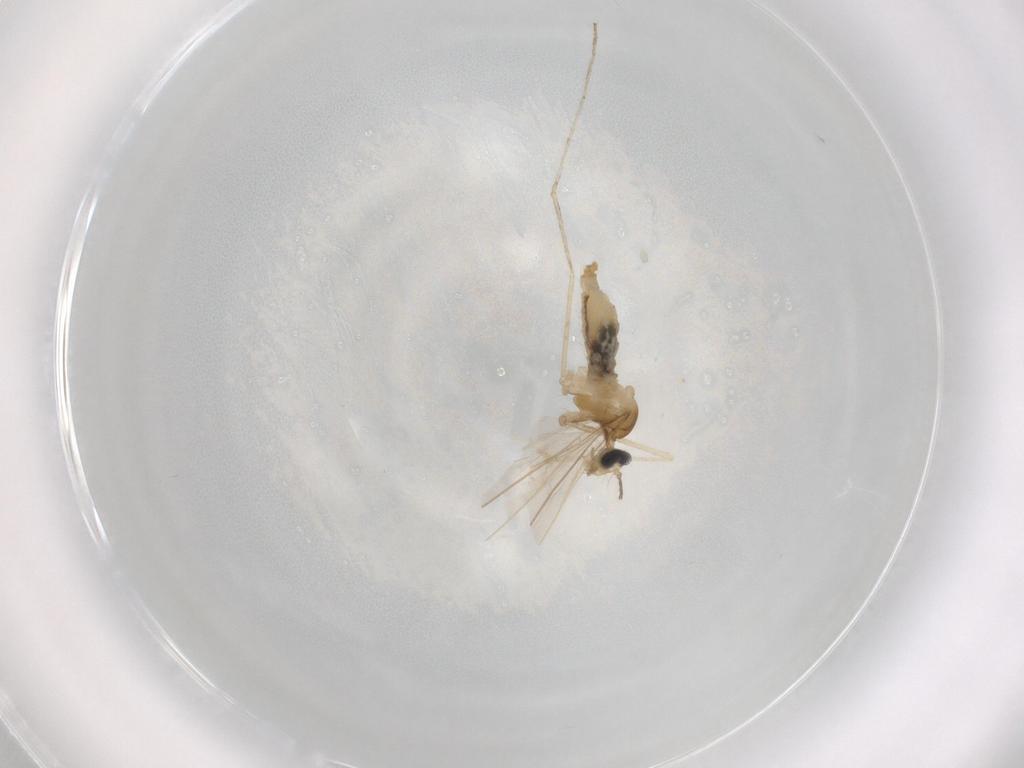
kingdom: Animalia
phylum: Arthropoda
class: Insecta
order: Diptera
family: Cecidomyiidae
